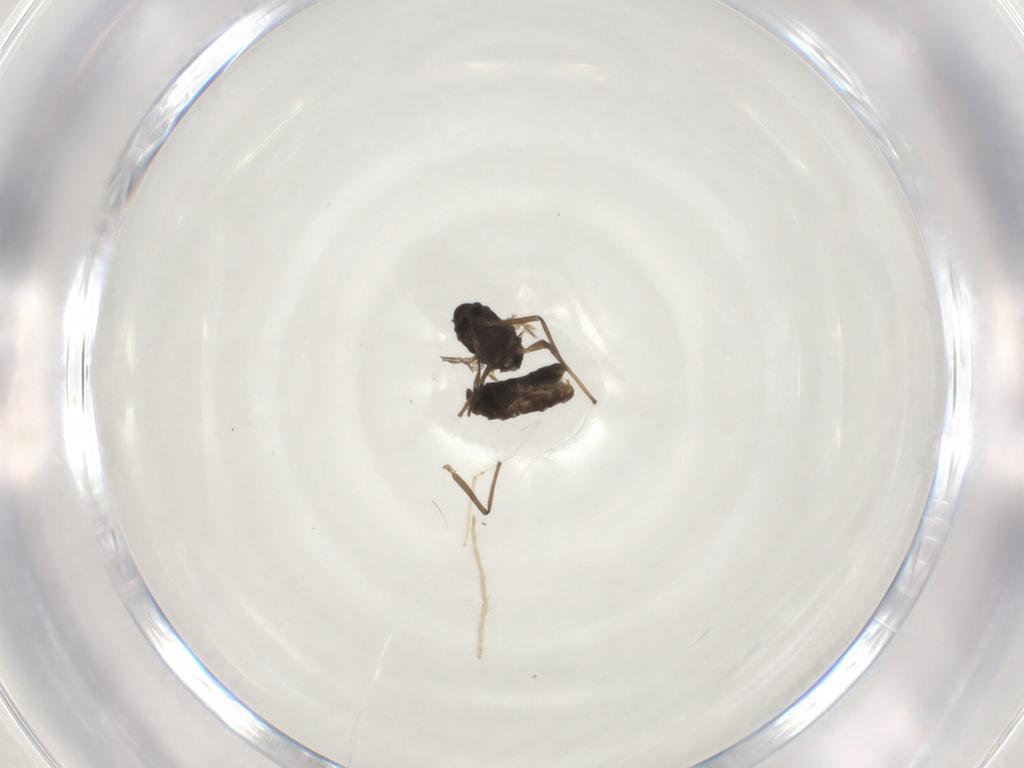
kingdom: Animalia
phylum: Arthropoda
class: Insecta
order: Diptera
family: Chironomidae
